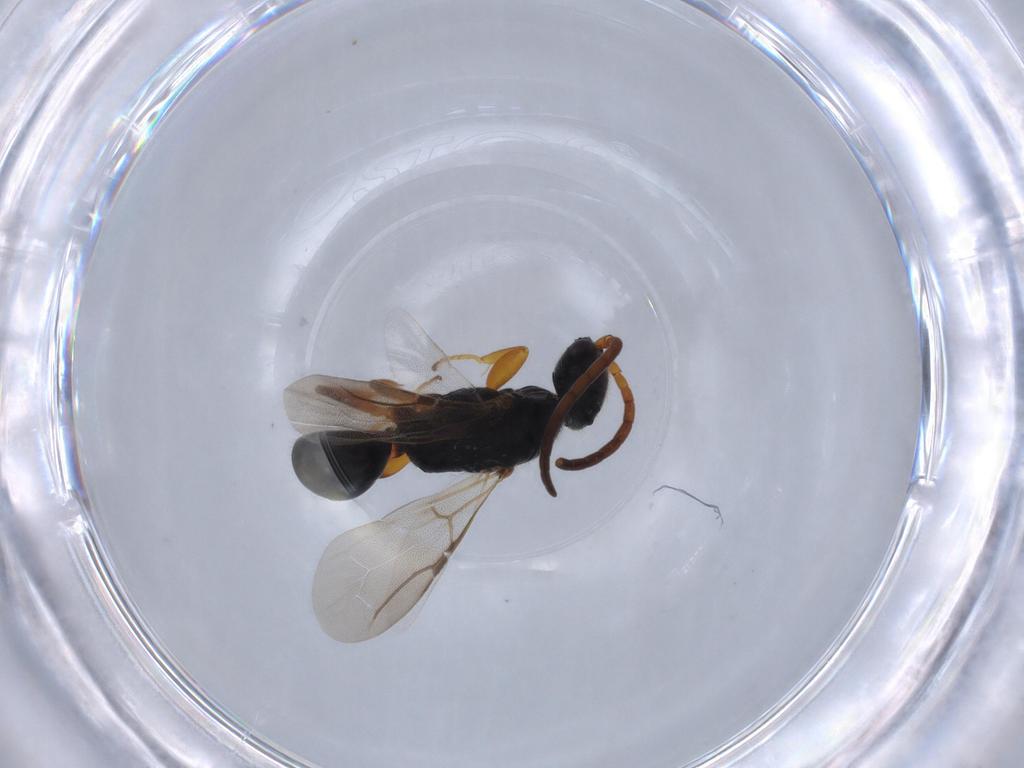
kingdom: Animalia
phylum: Arthropoda
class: Insecta
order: Hymenoptera
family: Bethylidae
